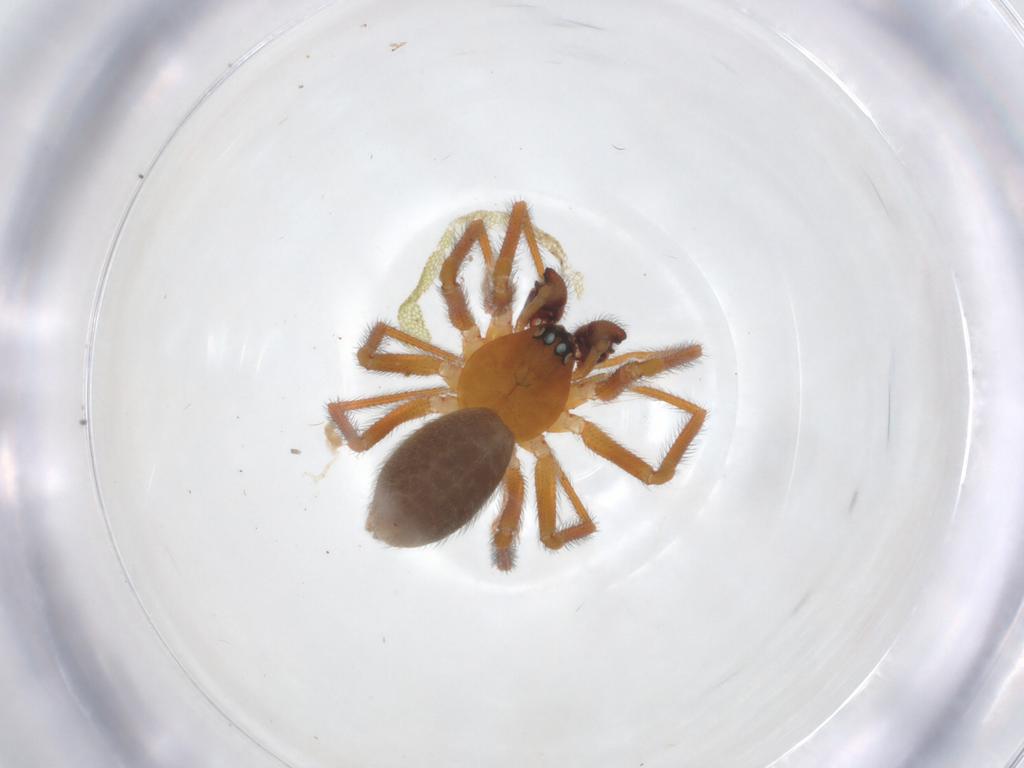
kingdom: Animalia
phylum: Arthropoda
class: Arachnida
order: Araneae
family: Linyphiidae
